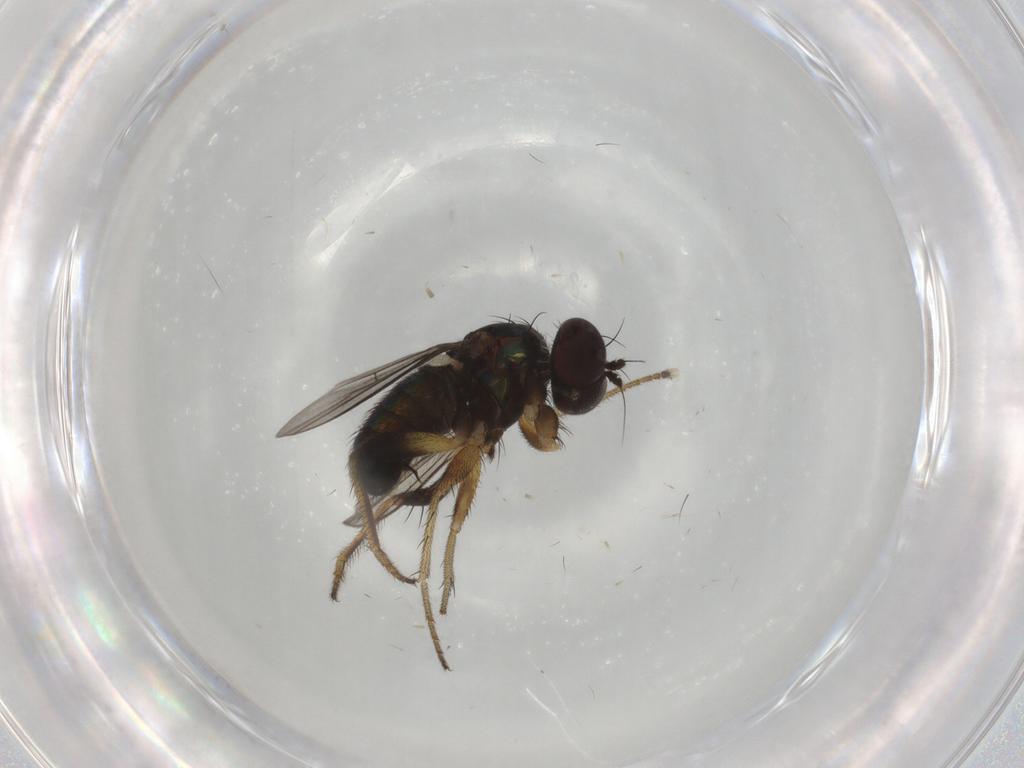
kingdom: Animalia
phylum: Arthropoda
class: Insecta
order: Diptera
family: Dolichopodidae
